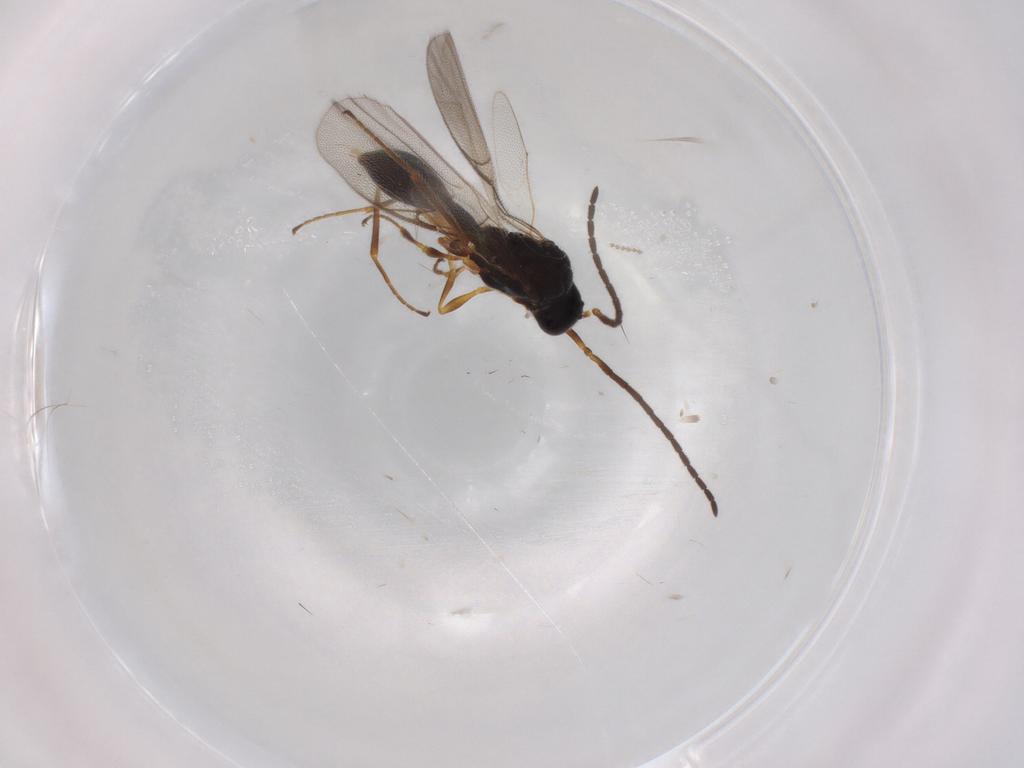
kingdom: Animalia
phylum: Arthropoda
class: Insecta
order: Hymenoptera
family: Diapriidae
